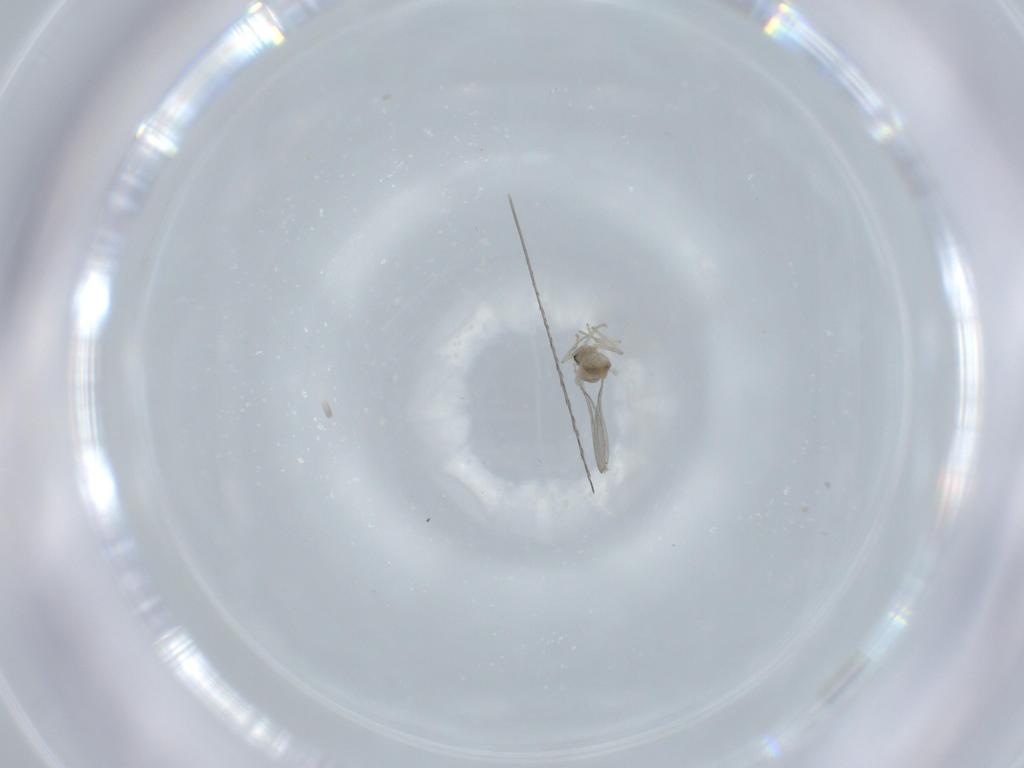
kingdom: Animalia
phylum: Arthropoda
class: Insecta
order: Diptera
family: Cecidomyiidae
